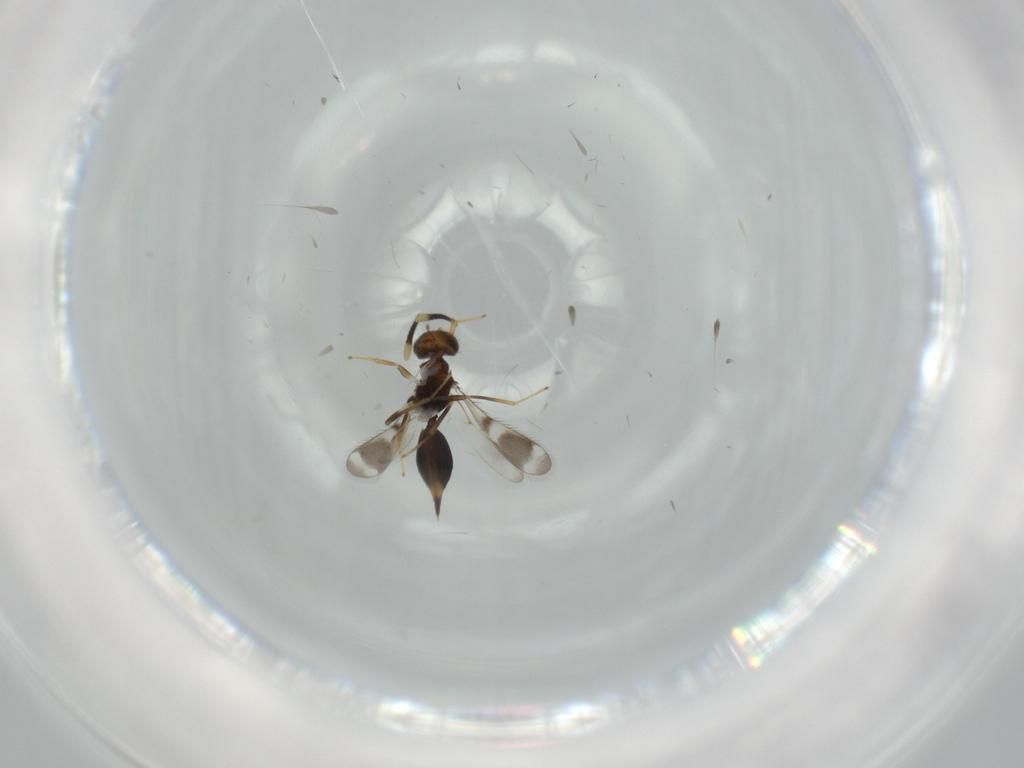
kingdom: Animalia
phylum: Arthropoda
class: Insecta
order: Hymenoptera
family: Diparidae
